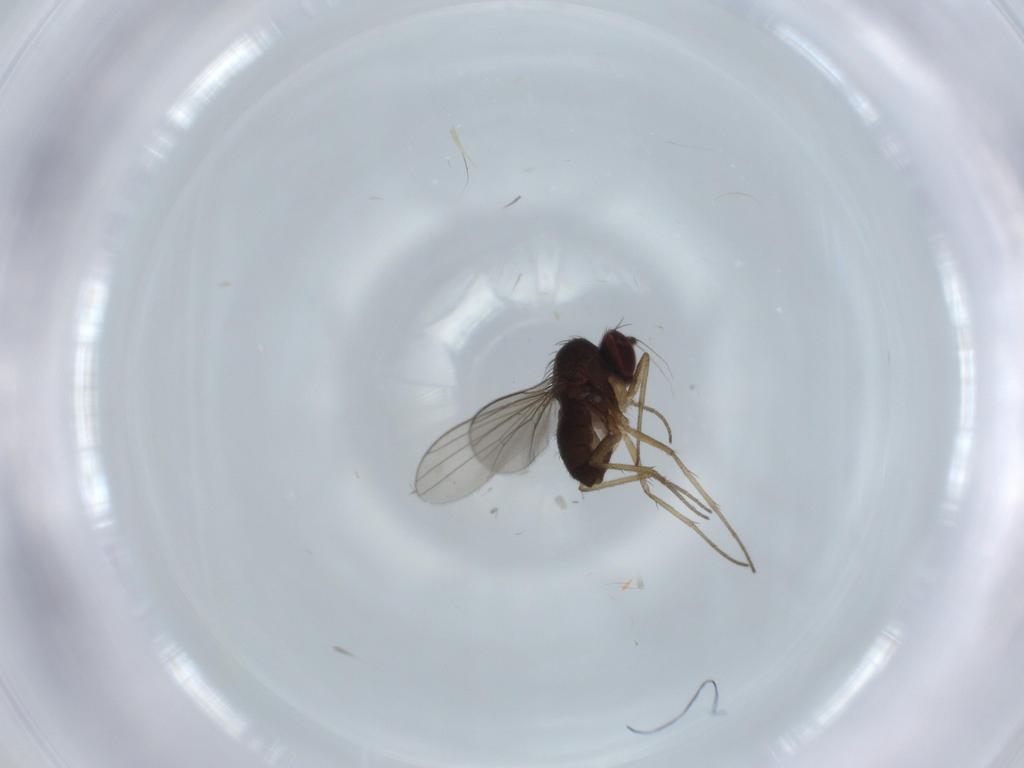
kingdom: Animalia
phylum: Arthropoda
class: Insecta
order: Diptera
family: Dolichopodidae
